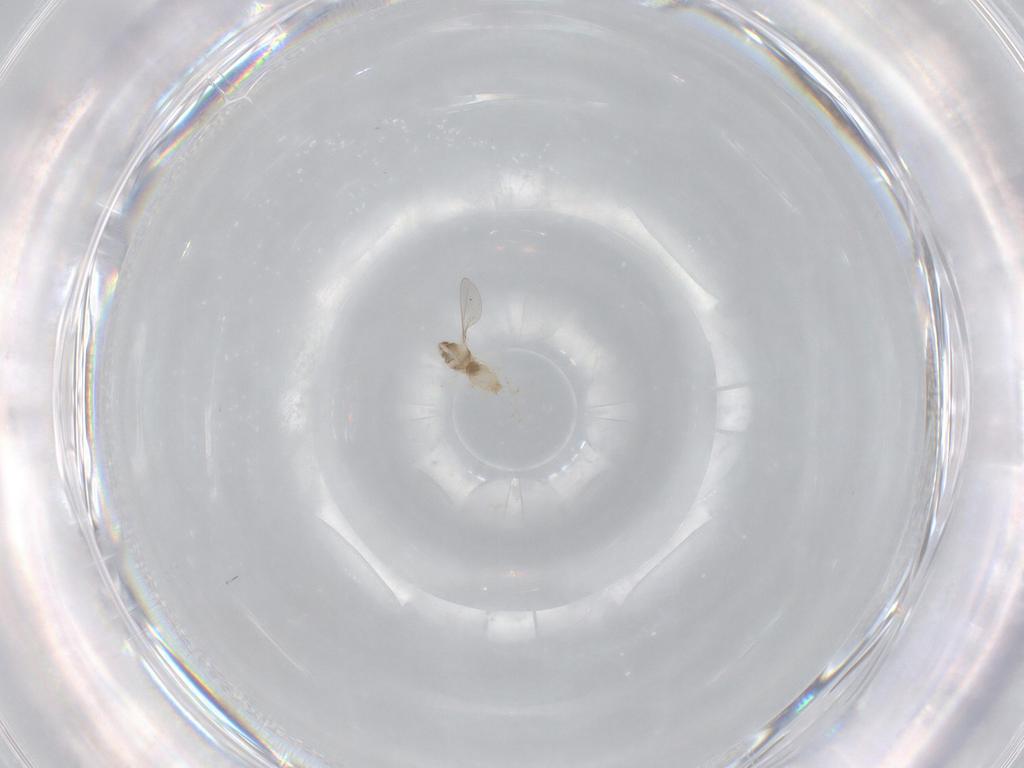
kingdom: Animalia
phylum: Arthropoda
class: Insecta
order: Diptera
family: Cecidomyiidae
